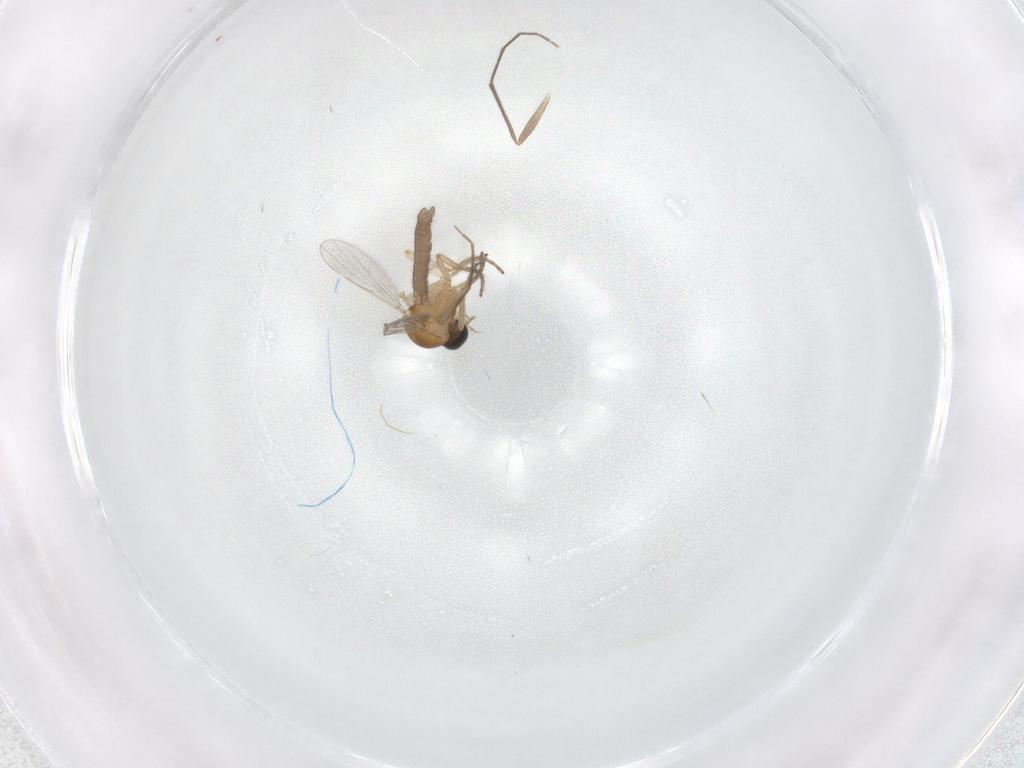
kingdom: Animalia
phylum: Arthropoda
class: Insecta
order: Diptera
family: Ceratopogonidae
